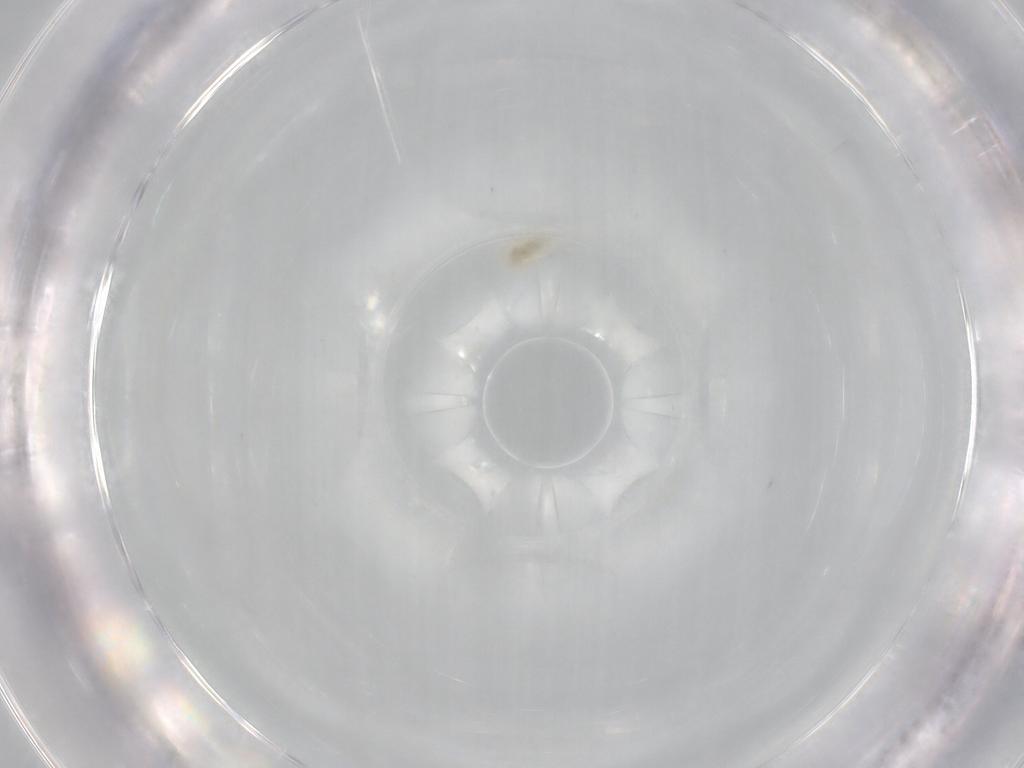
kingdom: Animalia
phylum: Arthropoda
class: Arachnida
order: Trombidiformes
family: Rhagidiidae
